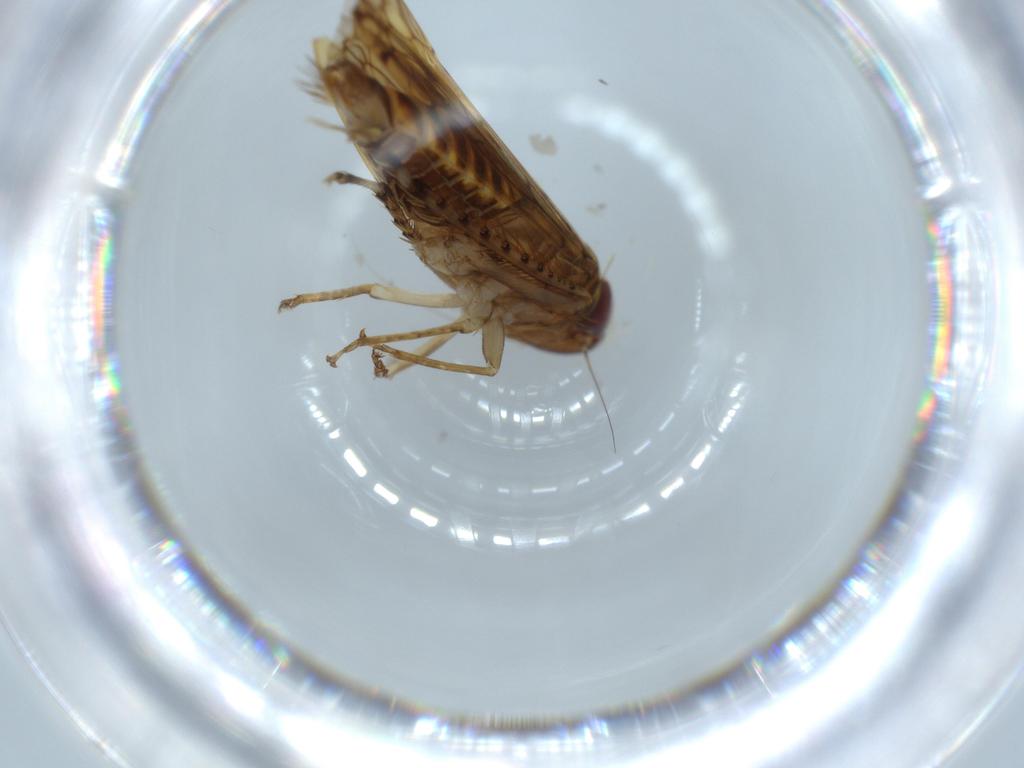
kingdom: Animalia
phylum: Arthropoda
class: Insecta
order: Hemiptera
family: Cicadellidae
